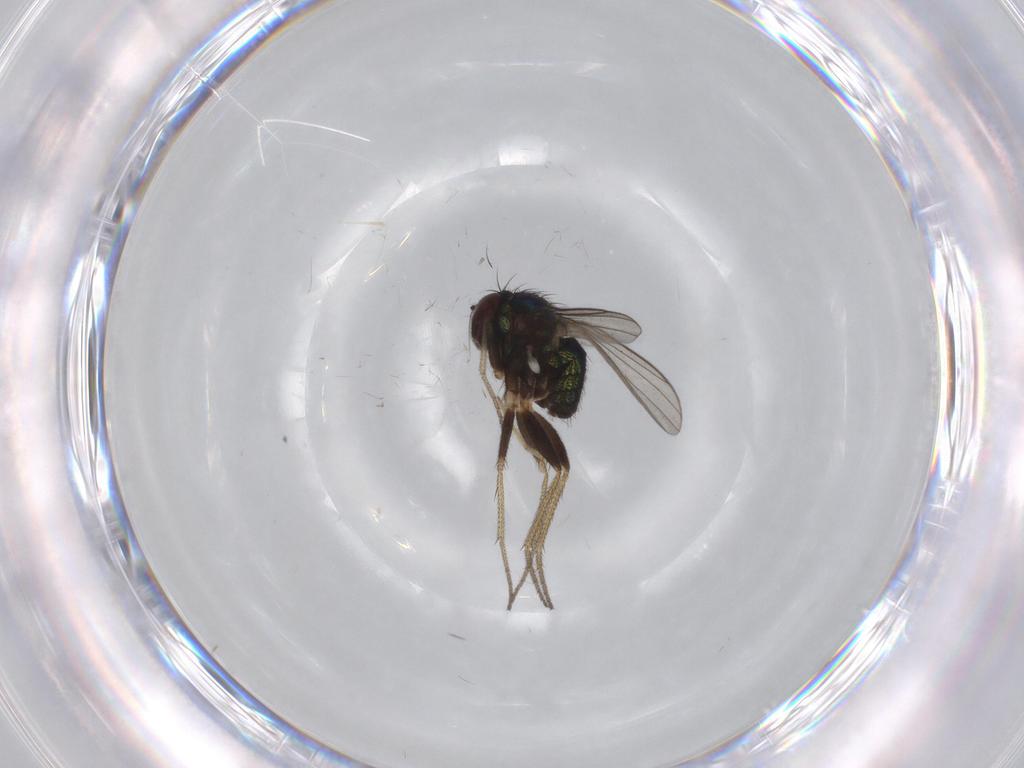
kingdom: Animalia
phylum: Arthropoda
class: Insecta
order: Diptera
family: Dolichopodidae
